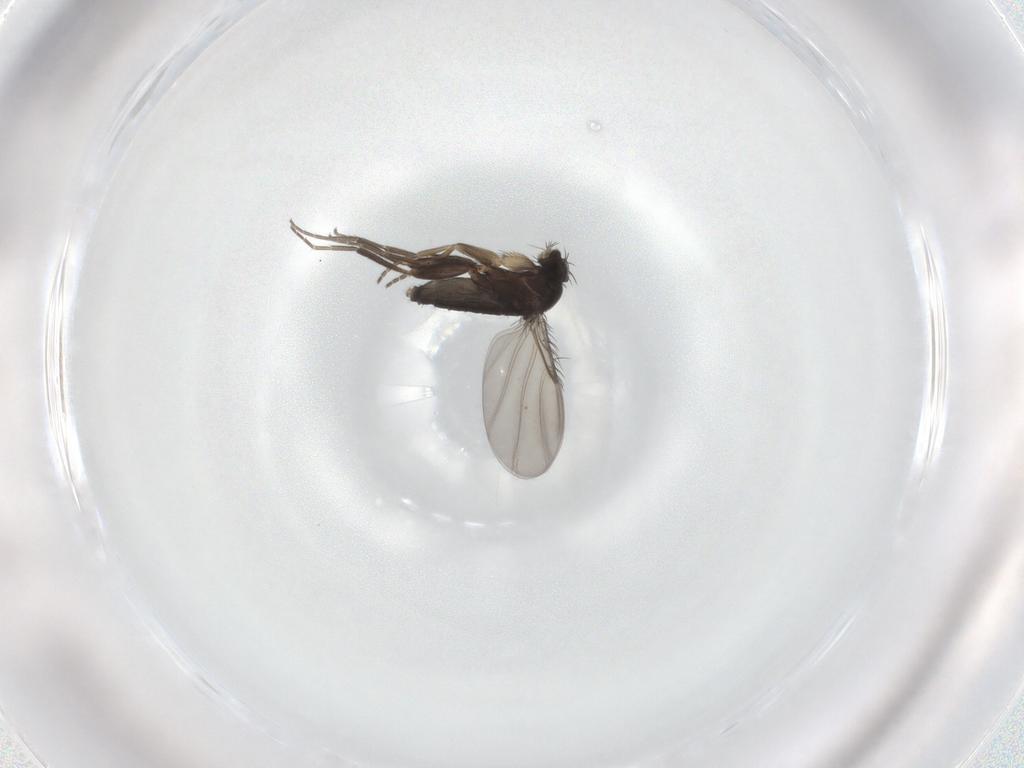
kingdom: Animalia
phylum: Arthropoda
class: Insecta
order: Diptera
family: Phoridae
